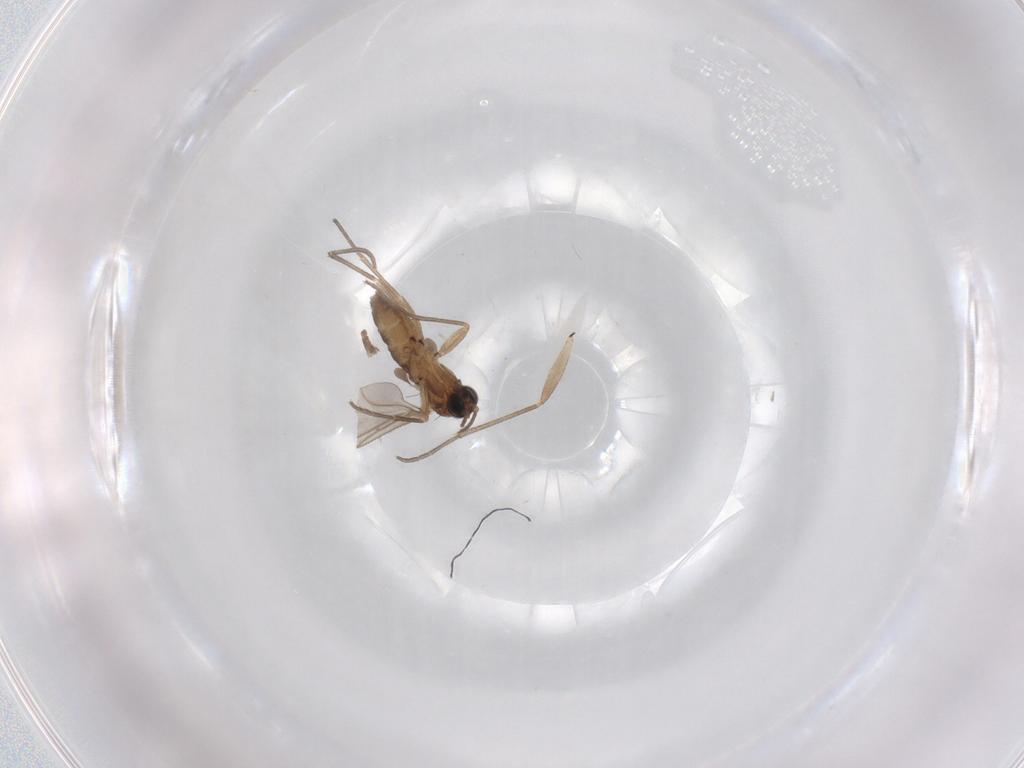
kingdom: Animalia
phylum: Arthropoda
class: Insecta
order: Diptera
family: Sciaridae
